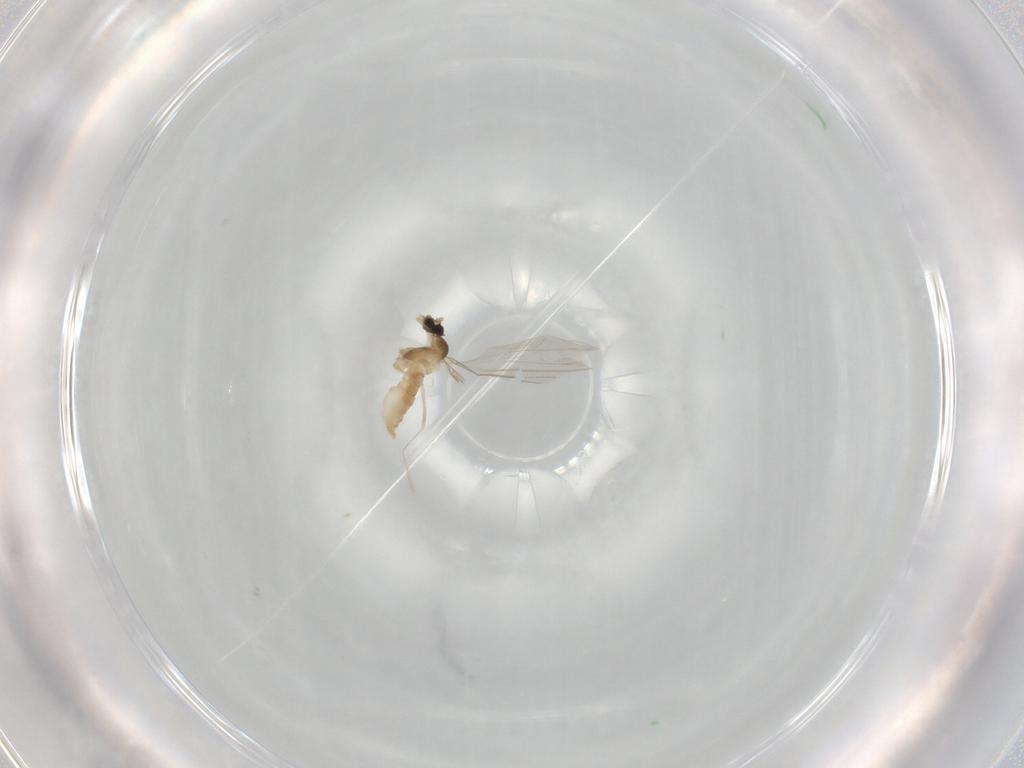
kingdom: Animalia
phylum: Arthropoda
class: Insecta
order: Diptera
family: Cecidomyiidae
